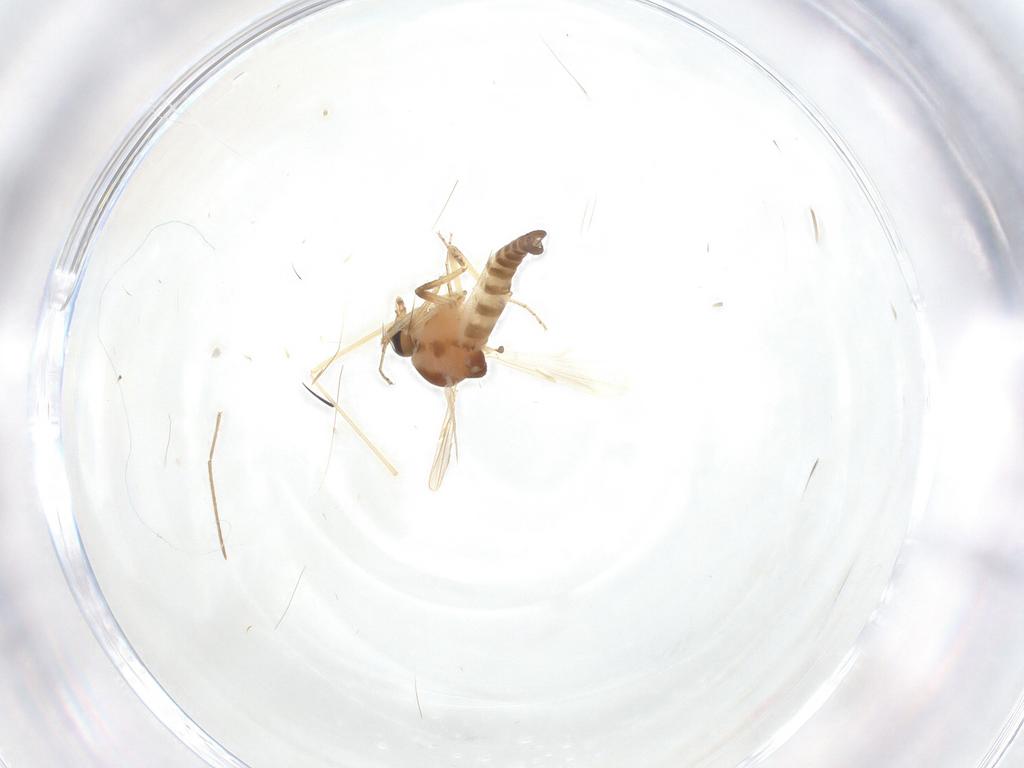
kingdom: Animalia
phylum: Arthropoda
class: Insecta
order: Diptera
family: Ceratopogonidae
